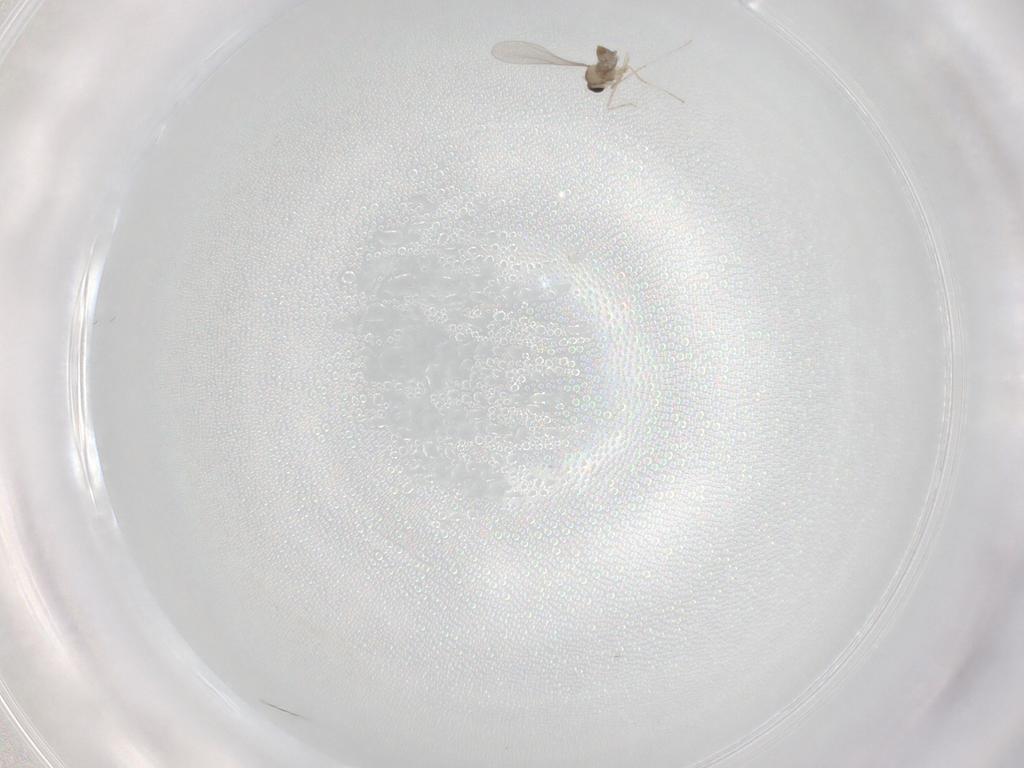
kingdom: Animalia
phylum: Arthropoda
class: Insecta
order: Diptera
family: Cecidomyiidae
